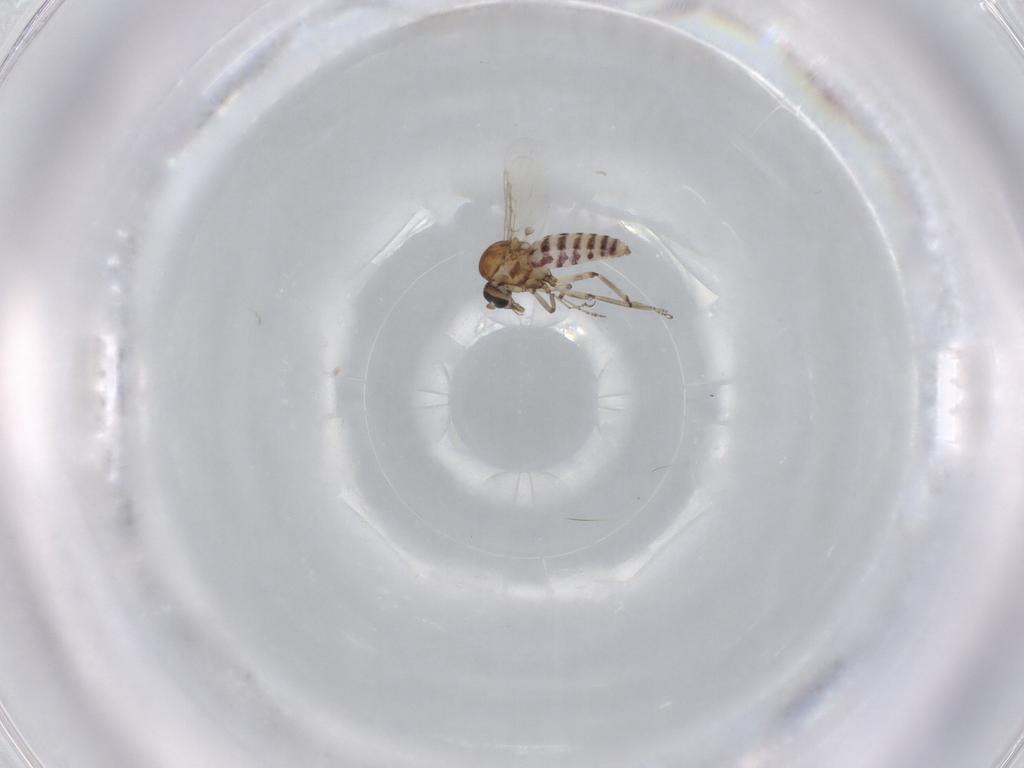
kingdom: Animalia
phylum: Arthropoda
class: Insecta
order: Diptera
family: Ceratopogonidae
